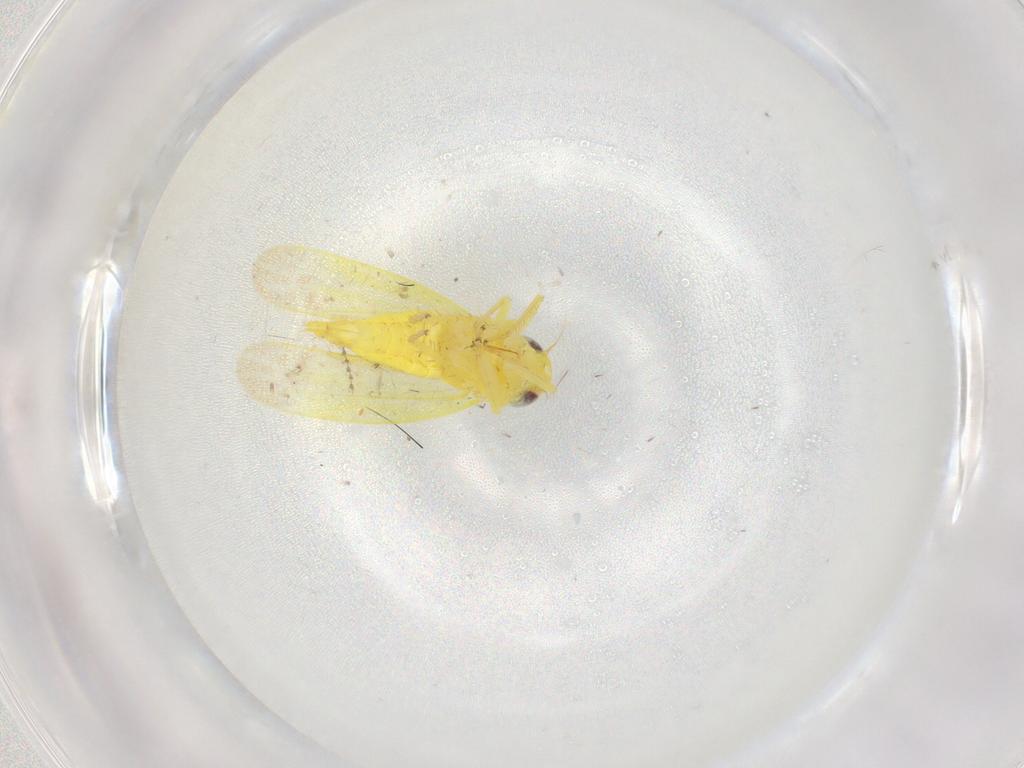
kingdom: Animalia
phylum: Arthropoda
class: Insecta
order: Hemiptera
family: Cicadellidae
